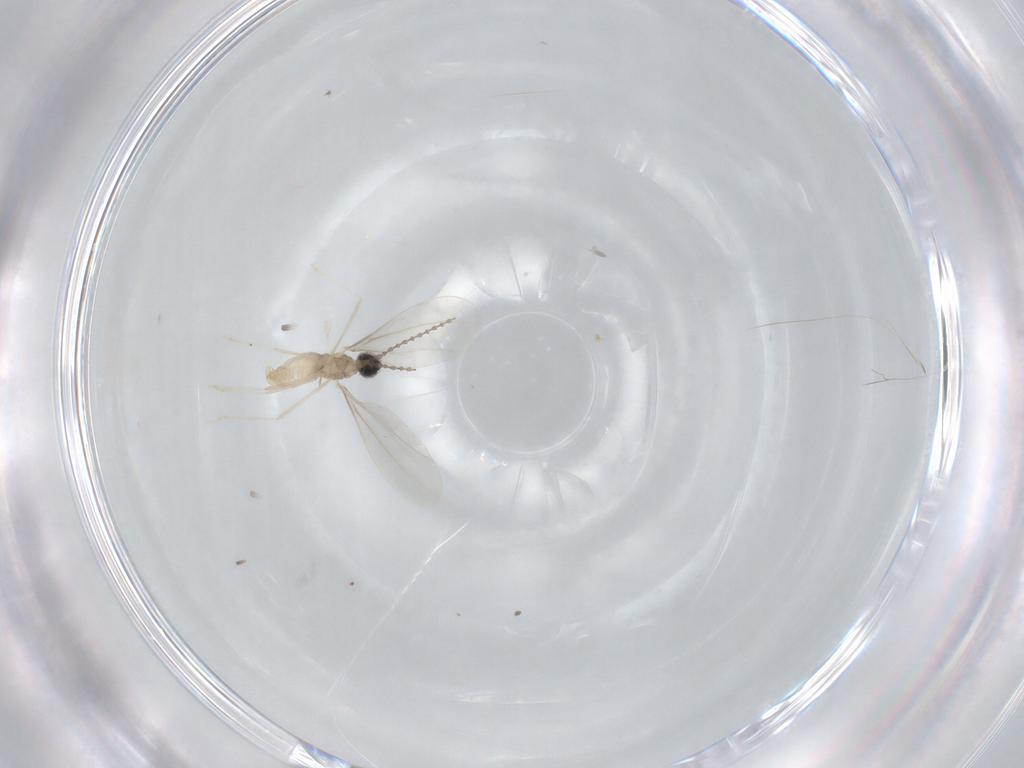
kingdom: Animalia
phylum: Arthropoda
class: Insecta
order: Diptera
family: Cecidomyiidae
